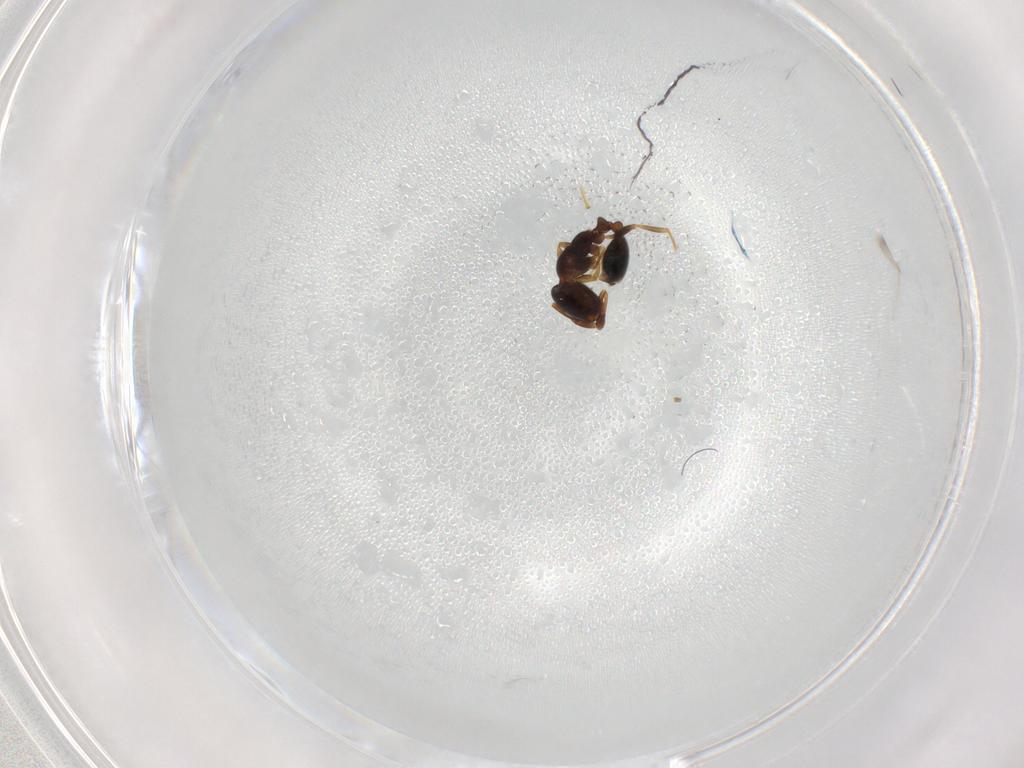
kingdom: Animalia
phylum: Arthropoda
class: Insecta
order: Hymenoptera
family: Formicidae
